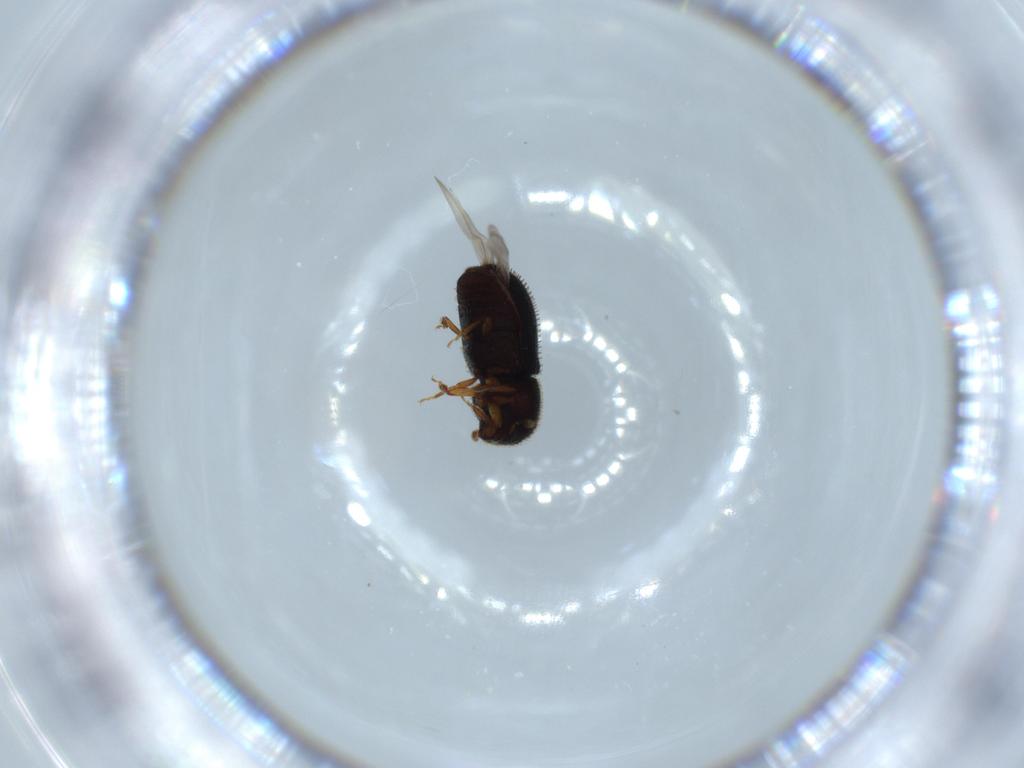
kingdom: Animalia
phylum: Arthropoda
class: Insecta
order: Coleoptera
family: Curculionidae
